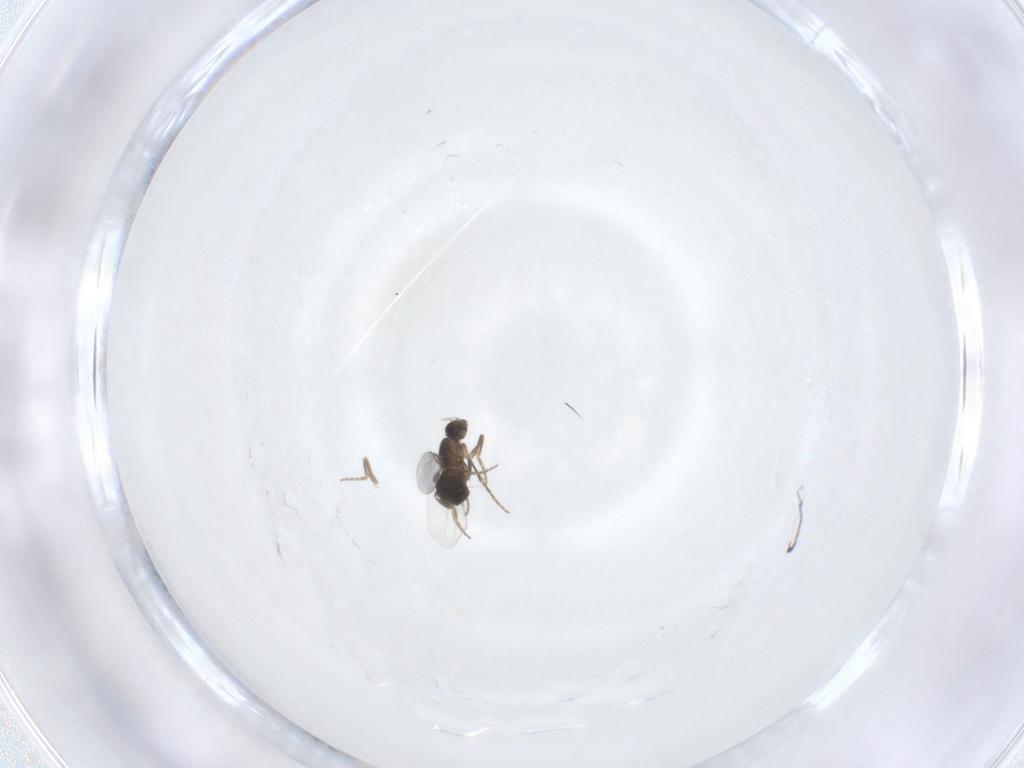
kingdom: Animalia
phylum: Arthropoda
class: Insecta
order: Diptera
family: Phoridae
